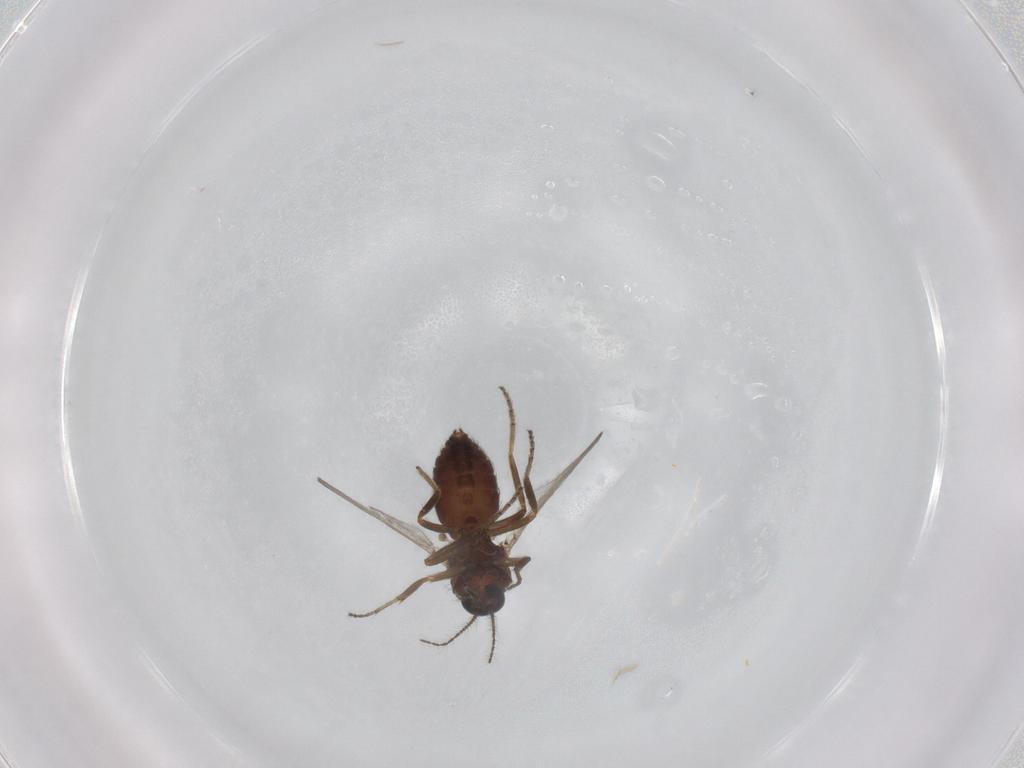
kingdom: Animalia
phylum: Arthropoda
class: Insecta
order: Diptera
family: Ceratopogonidae
